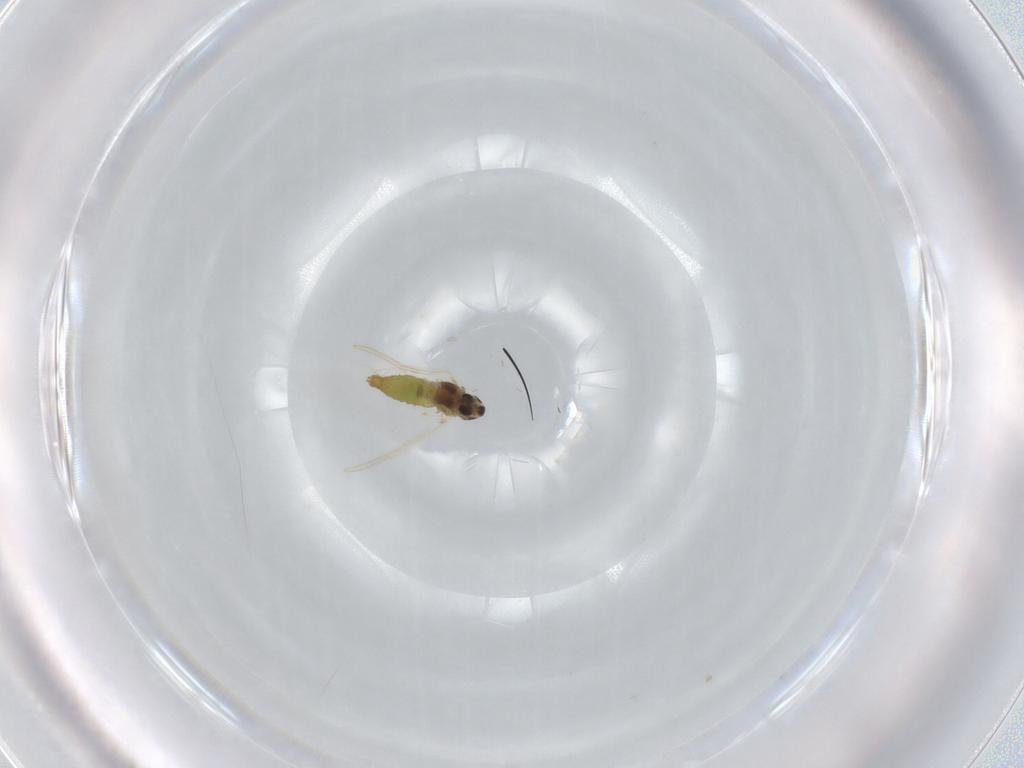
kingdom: Animalia
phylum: Arthropoda
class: Insecta
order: Diptera
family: Chironomidae
